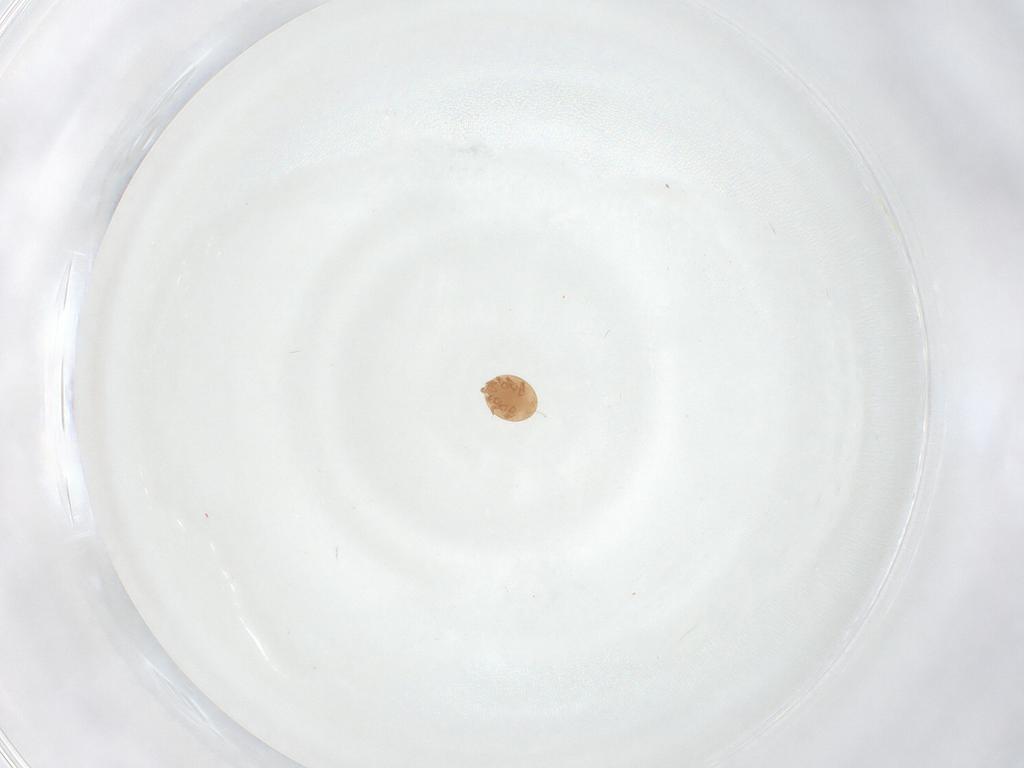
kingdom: Animalia
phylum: Arthropoda
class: Arachnida
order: Mesostigmata
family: Trematuridae
